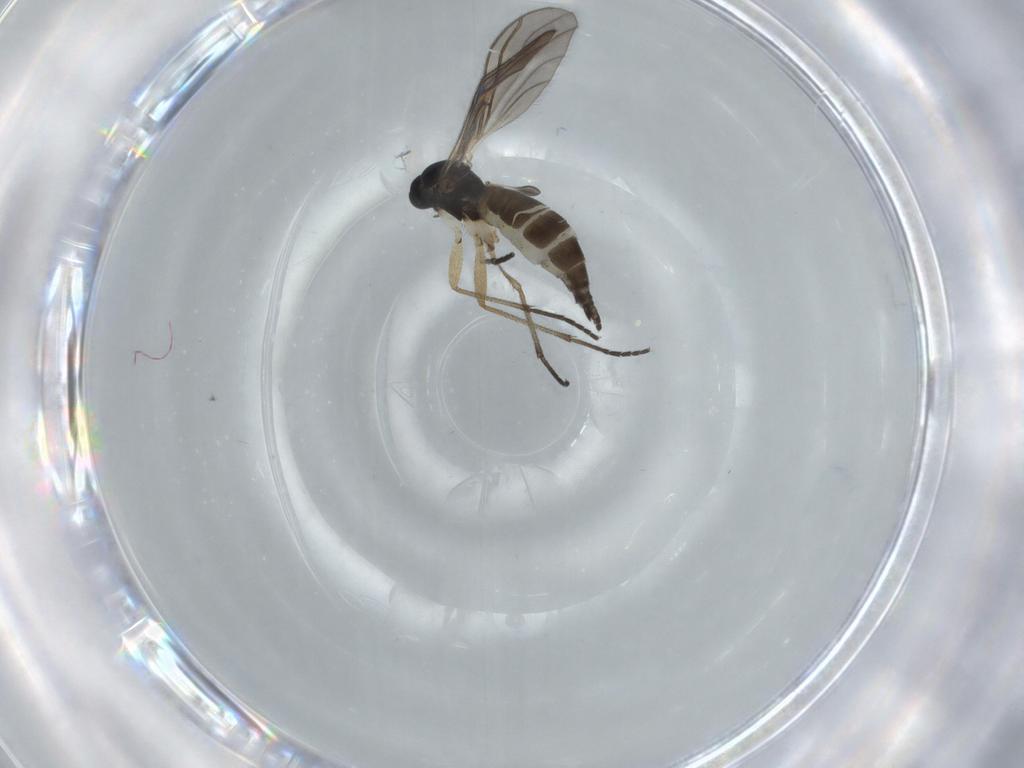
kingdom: Animalia
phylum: Arthropoda
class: Insecta
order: Diptera
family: Sciaridae
